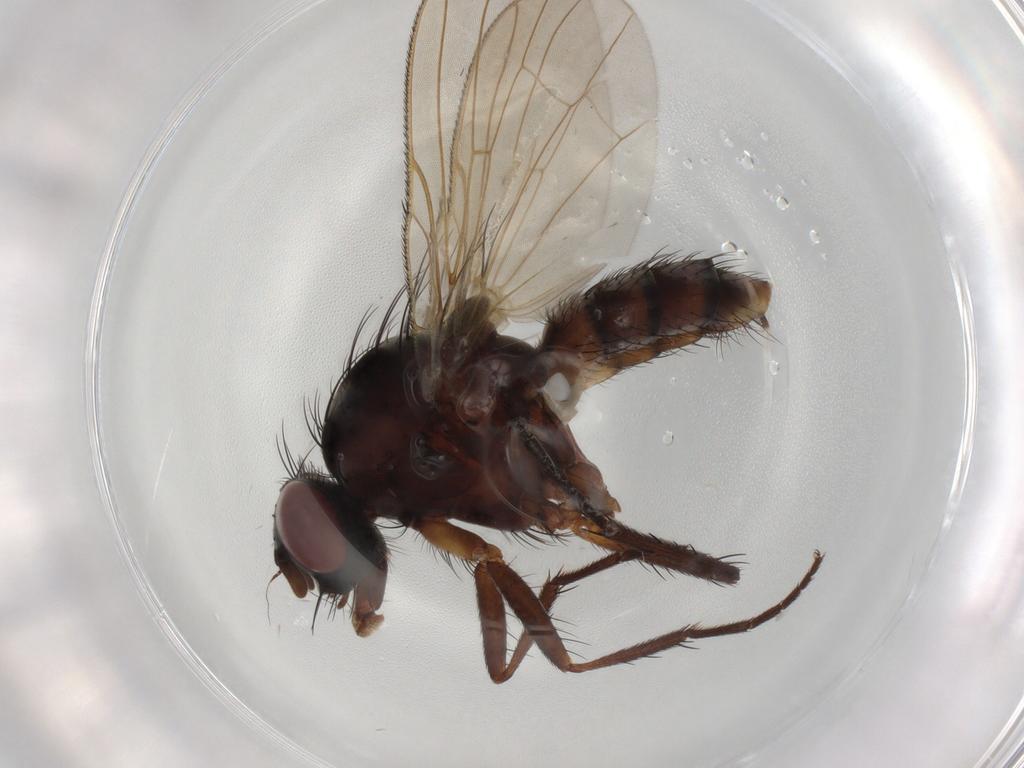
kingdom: Animalia
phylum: Arthropoda
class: Insecta
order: Diptera
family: Anthomyiidae
